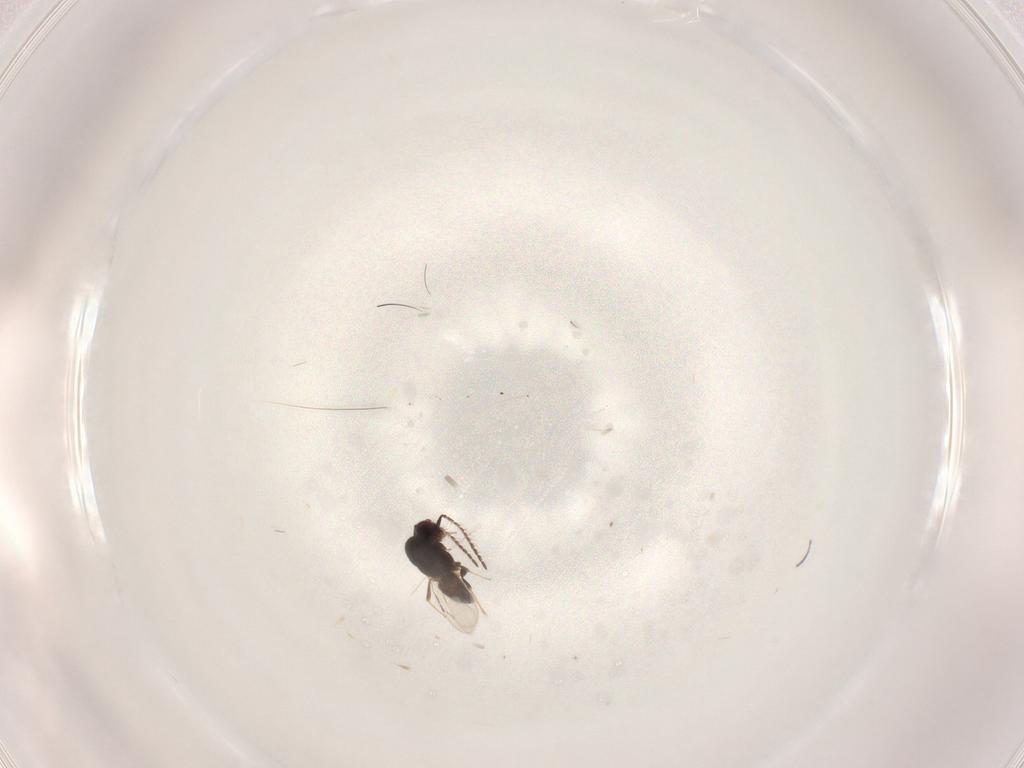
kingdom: Animalia
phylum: Arthropoda
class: Insecta
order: Hymenoptera
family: Ceraphronidae
